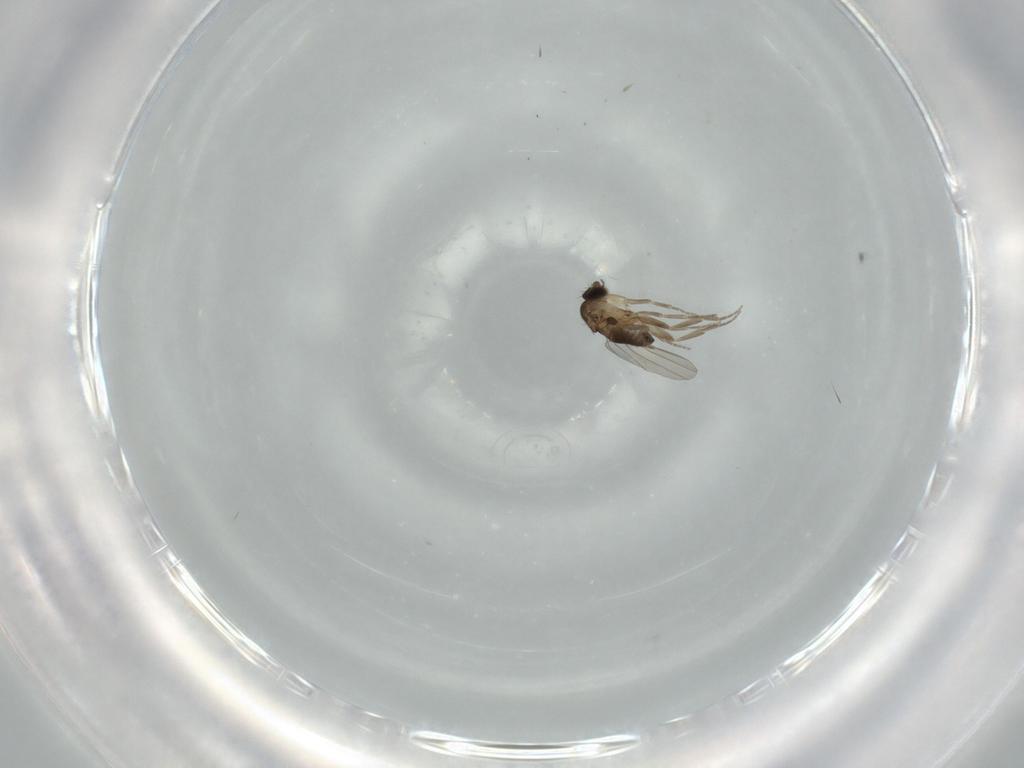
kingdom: Animalia
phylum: Arthropoda
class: Insecta
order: Diptera
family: Phoridae
